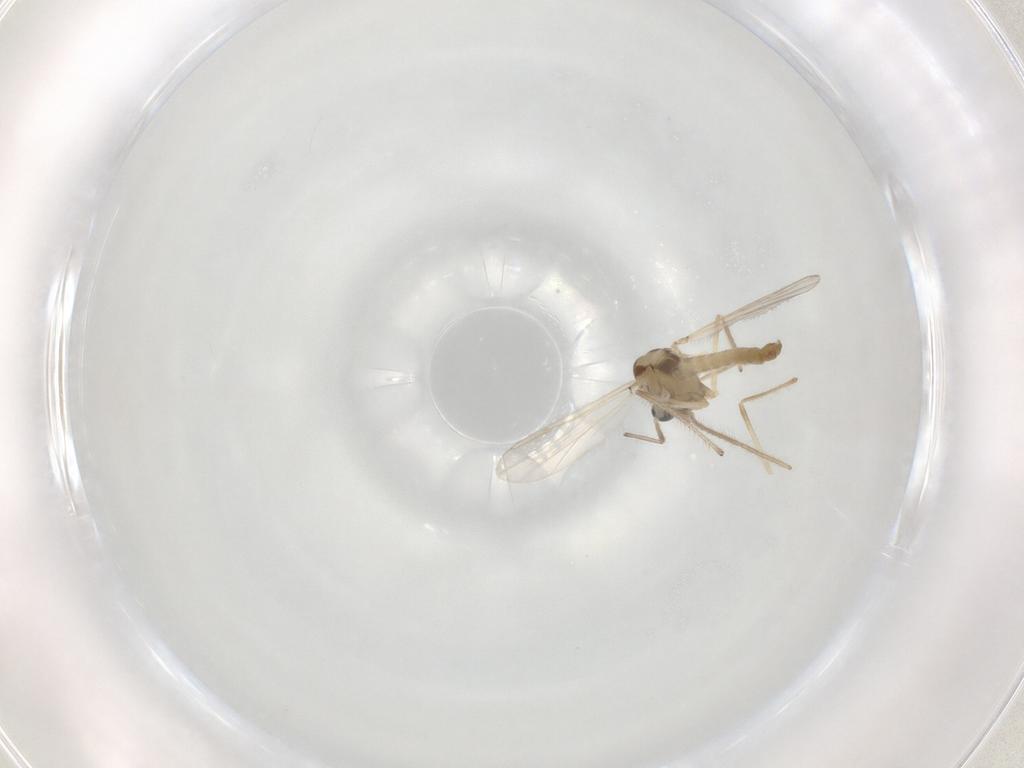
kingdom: Animalia
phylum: Arthropoda
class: Insecta
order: Diptera
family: Chironomidae
